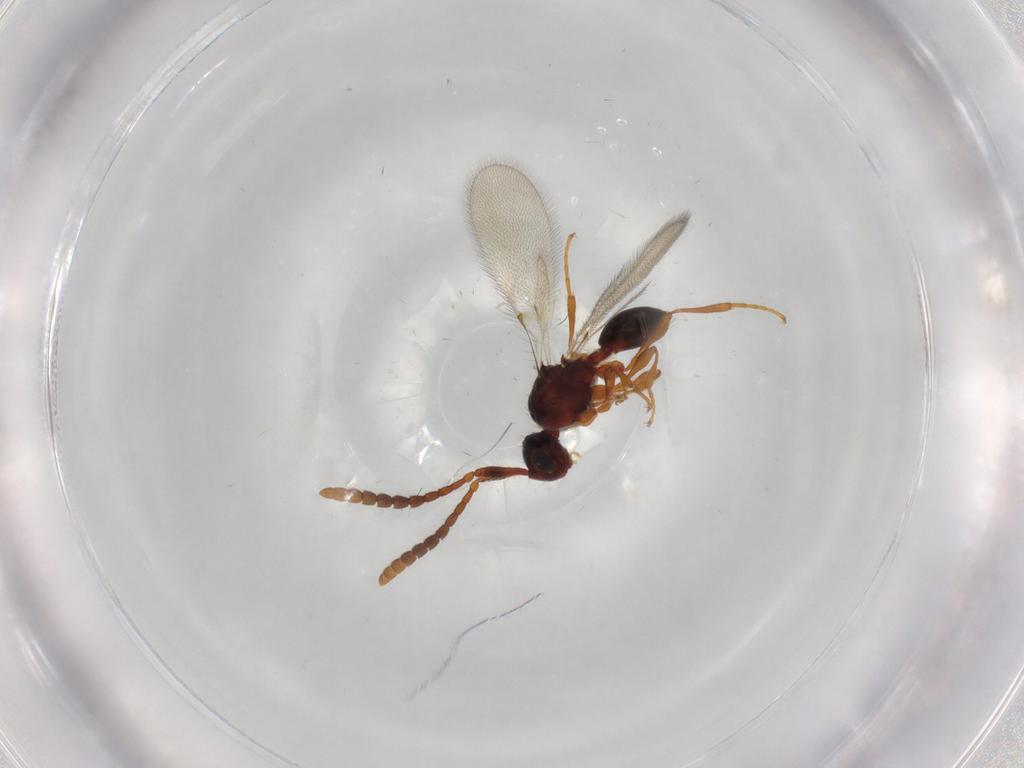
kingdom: Animalia
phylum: Arthropoda
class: Insecta
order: Hymenoptera
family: Diapriidae
